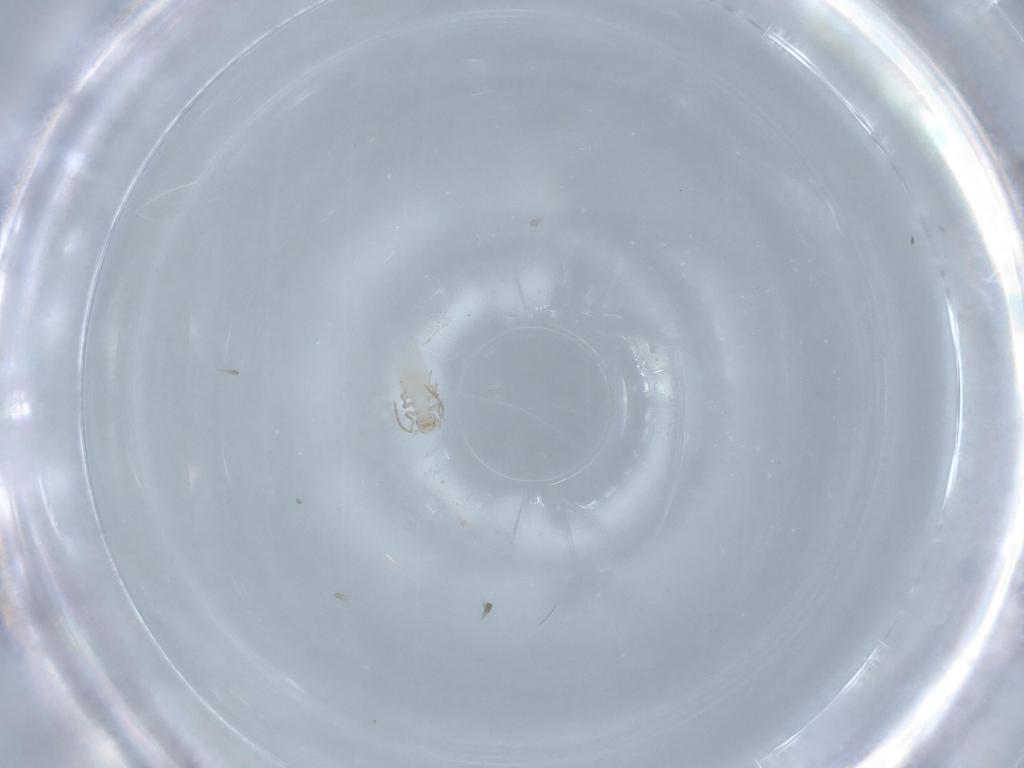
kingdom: Animalia
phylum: Arthropoda
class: Insecta
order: Psocodea
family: Caeciliusidae
